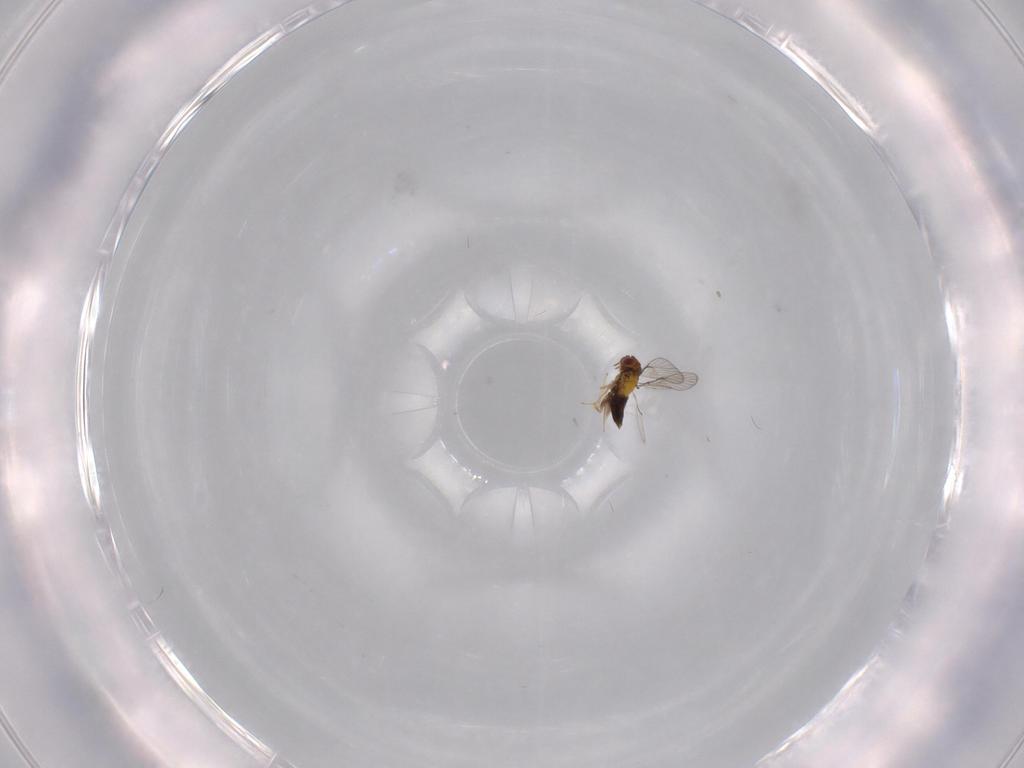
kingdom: Animalia
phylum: Arthropoda
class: Insecta
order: Hymenoptera
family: Trichogrammatidae
